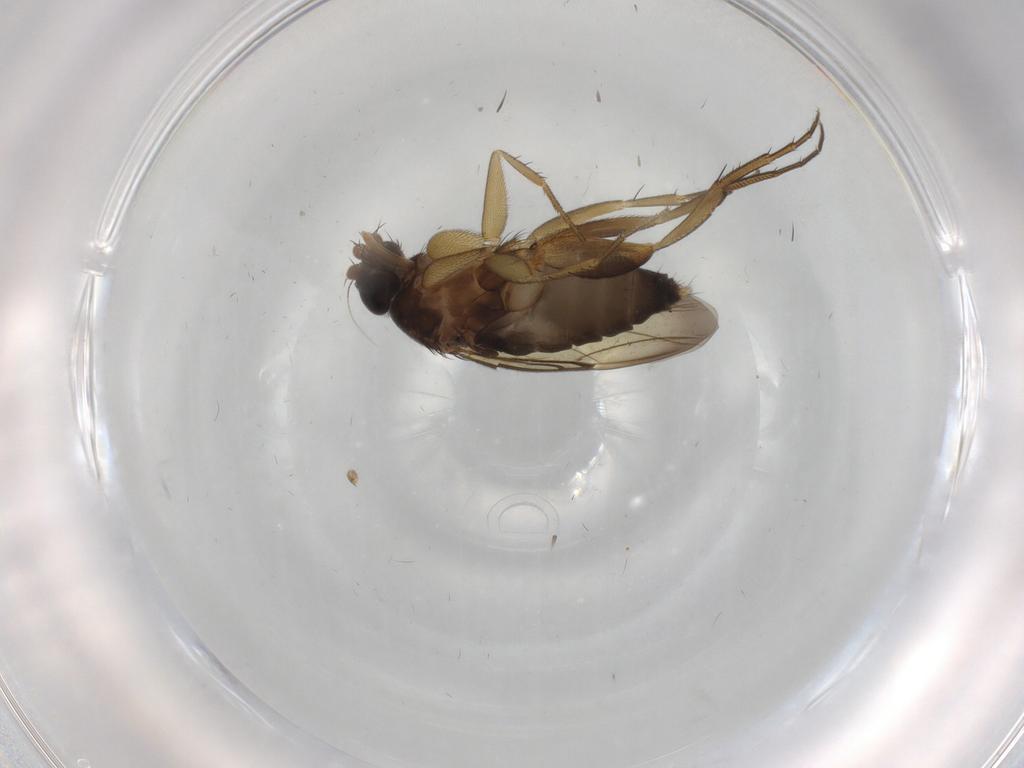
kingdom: Animalia
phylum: Arthropoda
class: Insecta
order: Diptera
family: Phoridae
